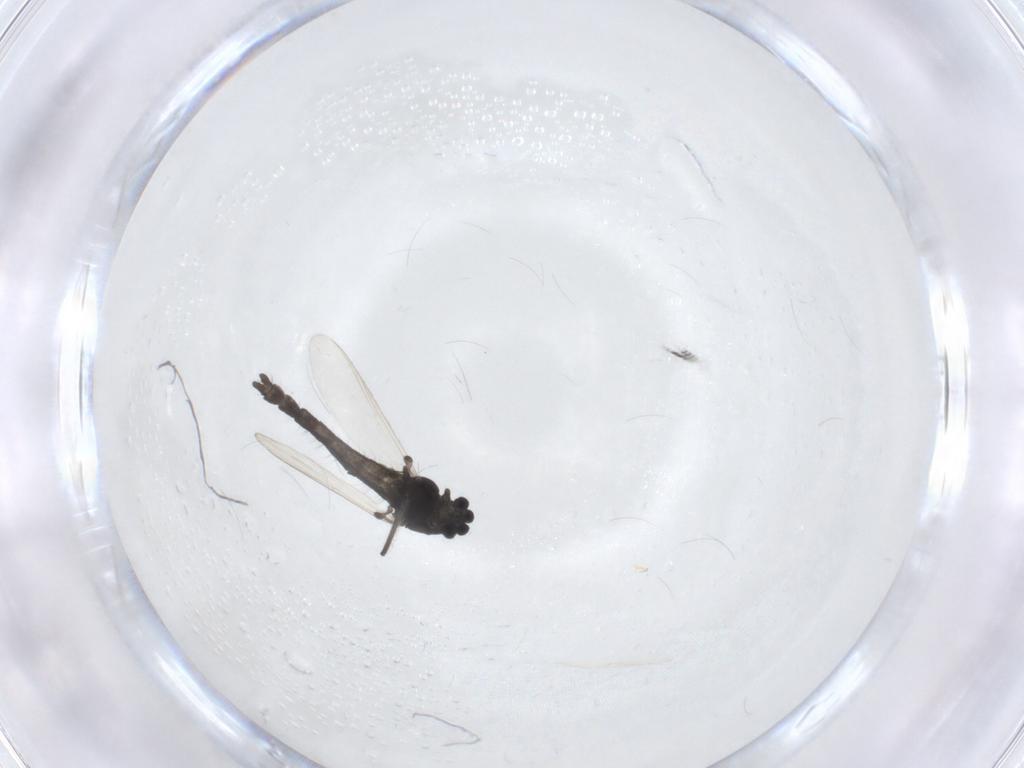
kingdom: Animalia
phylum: Arthropoda
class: Insecta
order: Diptera
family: Chironomidae
